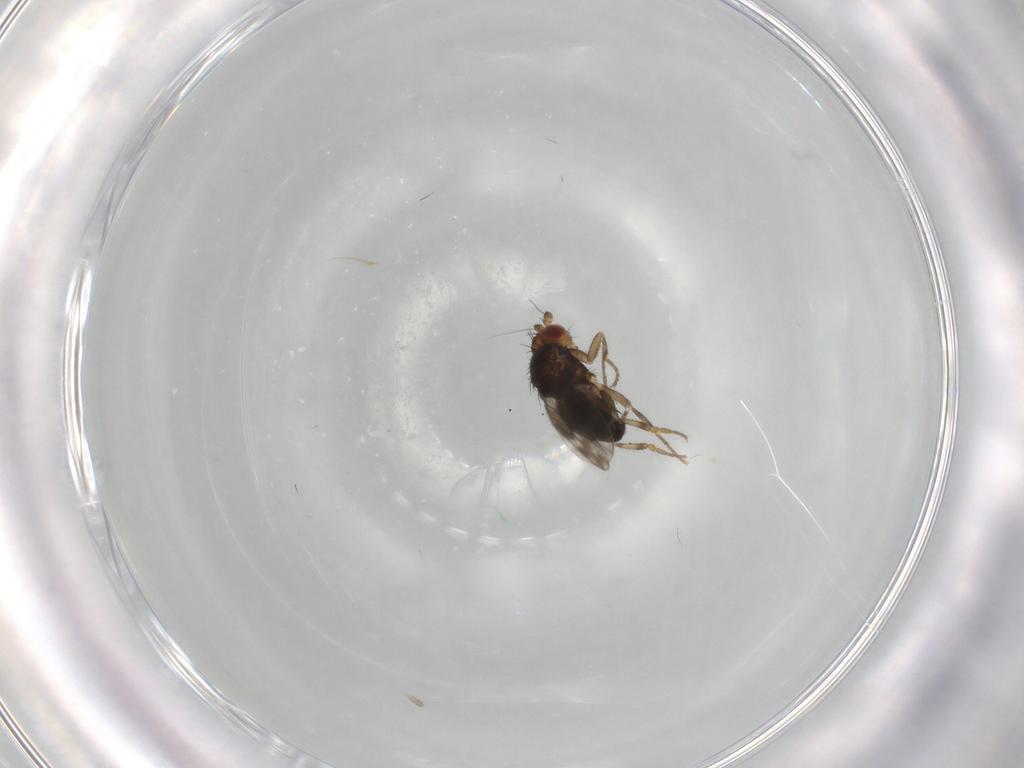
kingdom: Animalia
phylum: Arthropoda
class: Insecta
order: Diptera
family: Sphaeroceridae
